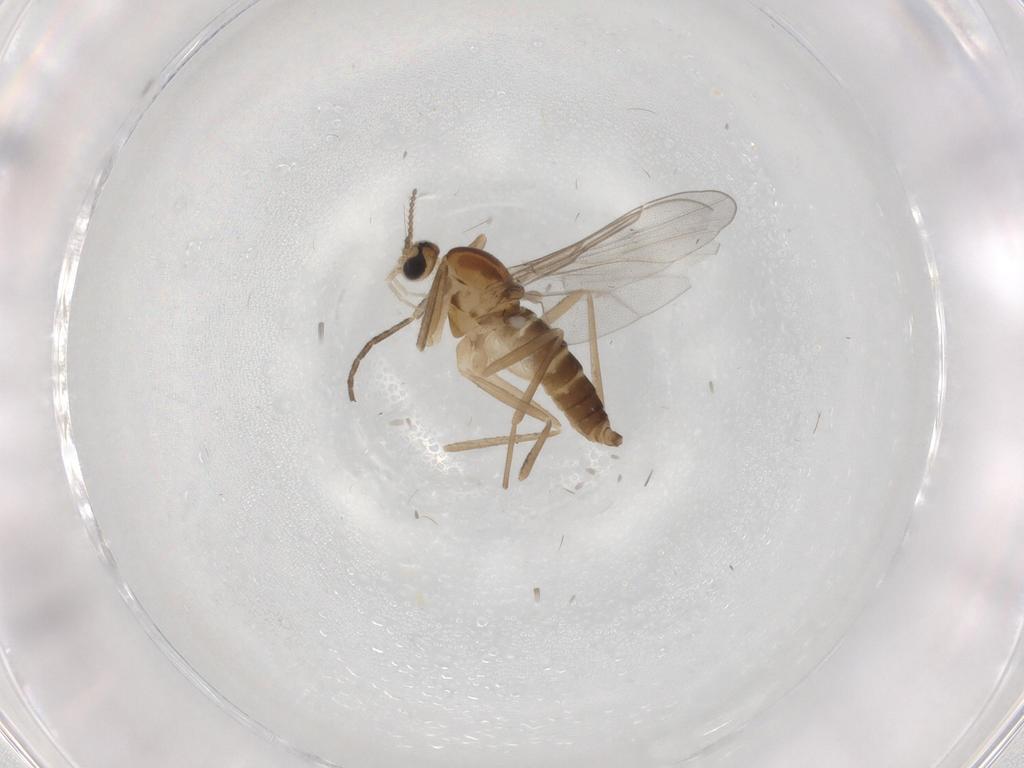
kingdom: Animalia
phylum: Arthropoda
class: Insecta
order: Diptera
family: Cecidomyiidae
